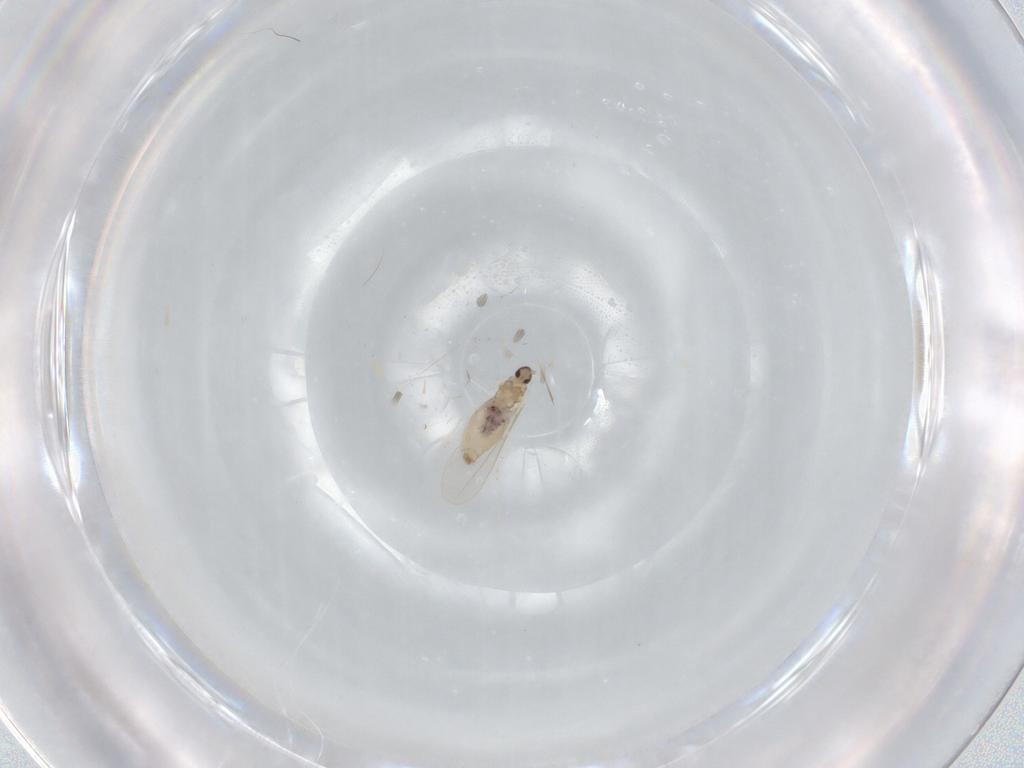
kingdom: Animalia
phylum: Arthropoda
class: Insecta
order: Diptera
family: Cecidomyiidae
